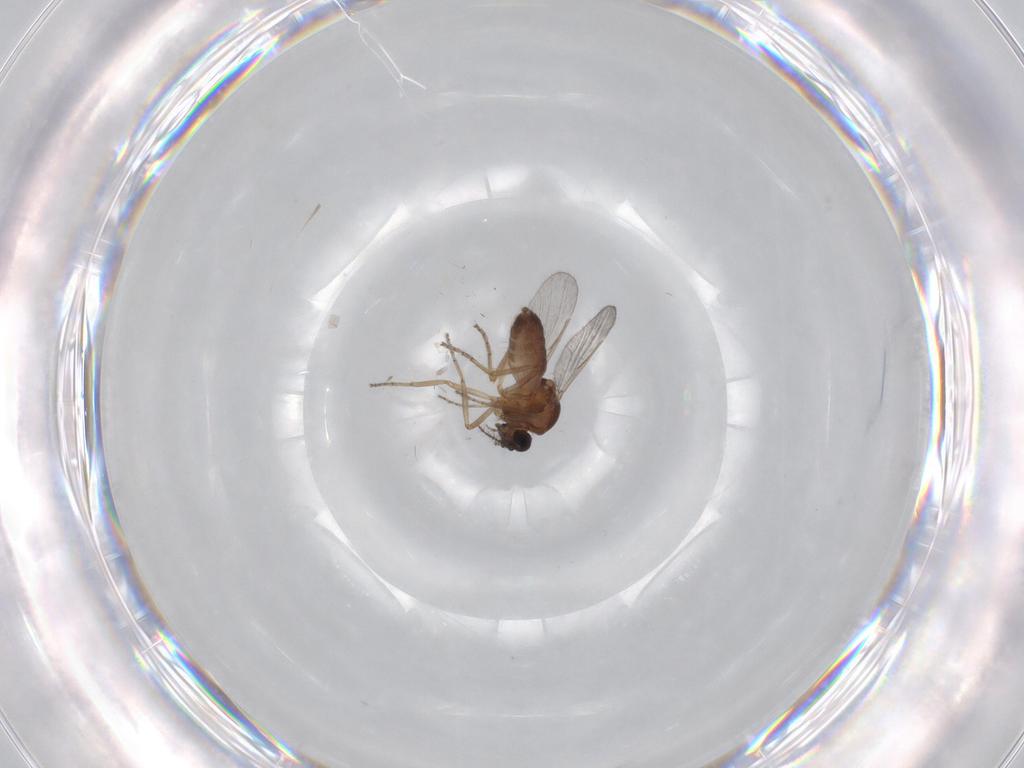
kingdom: Animalia
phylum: Arthropoda
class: Insecta
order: Diptera
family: Ceratopogonidae
